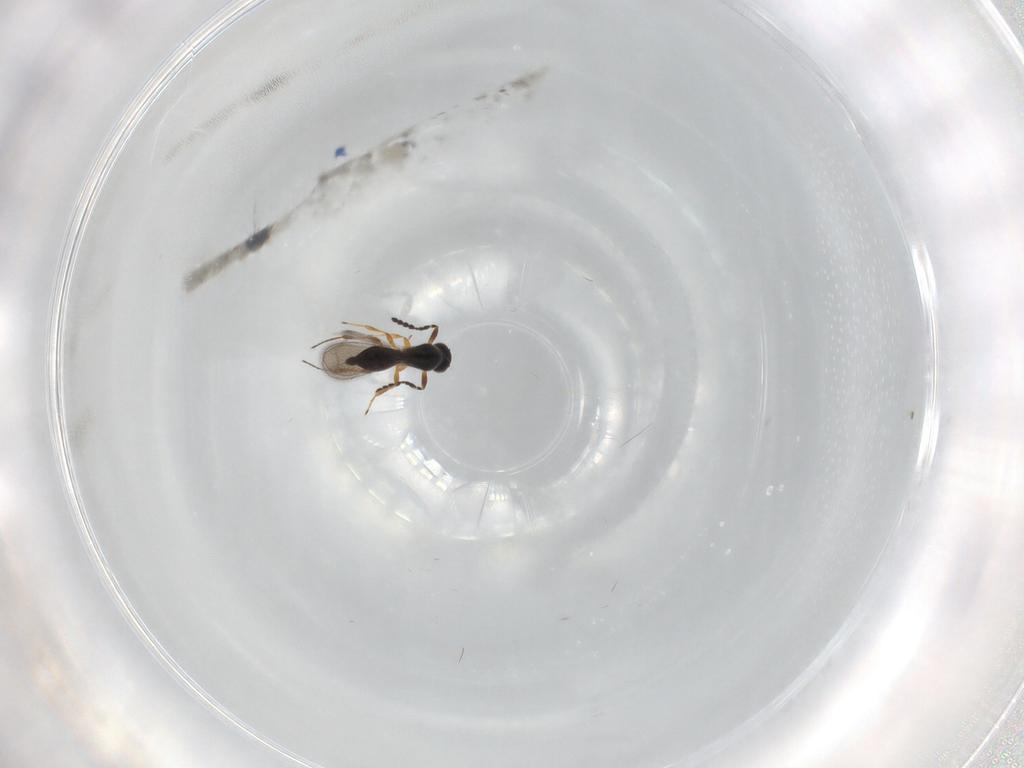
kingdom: Animalia
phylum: Arthropoda
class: Insecta
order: Hymenoptera
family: Platygastridae
